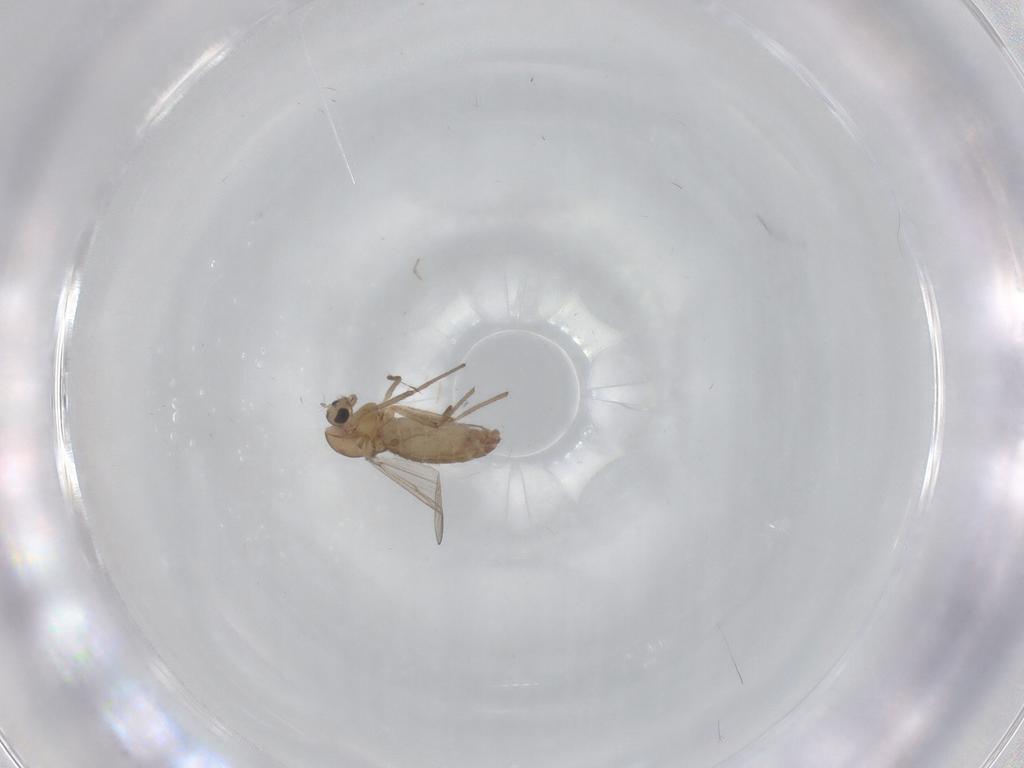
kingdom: Animalia
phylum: Arthropoda
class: Insecta
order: Diptera
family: Chironomidae
